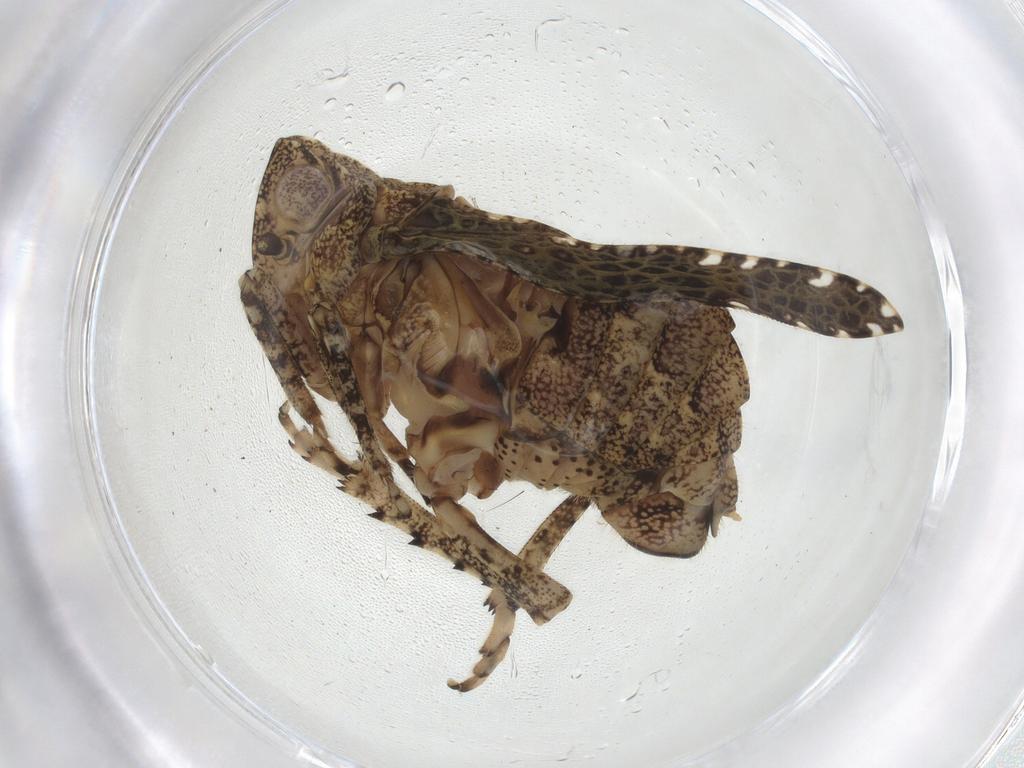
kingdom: Animalia
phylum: Arthropoda
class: Insecta
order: Hemiptera
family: Tropiduchidae
